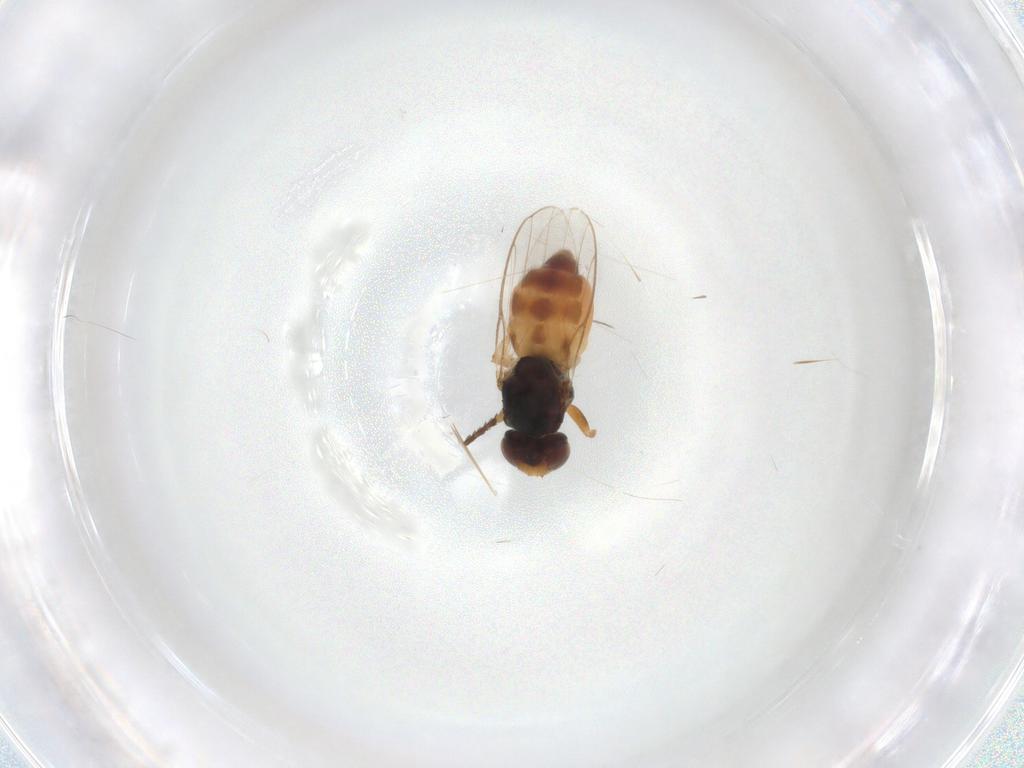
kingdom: Animalia
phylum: Arthropoda
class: Insecta
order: Diptera
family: Chloropidae
